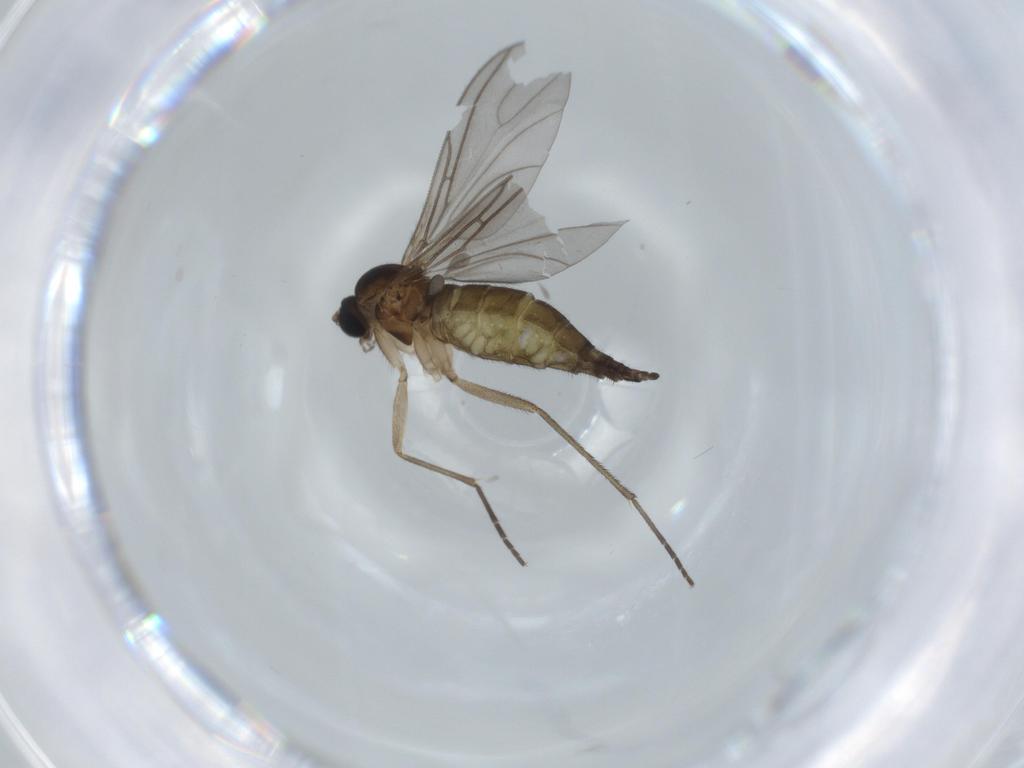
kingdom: Animalia
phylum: Arthropoda
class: Insecta
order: Diptera
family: Sciaridae
